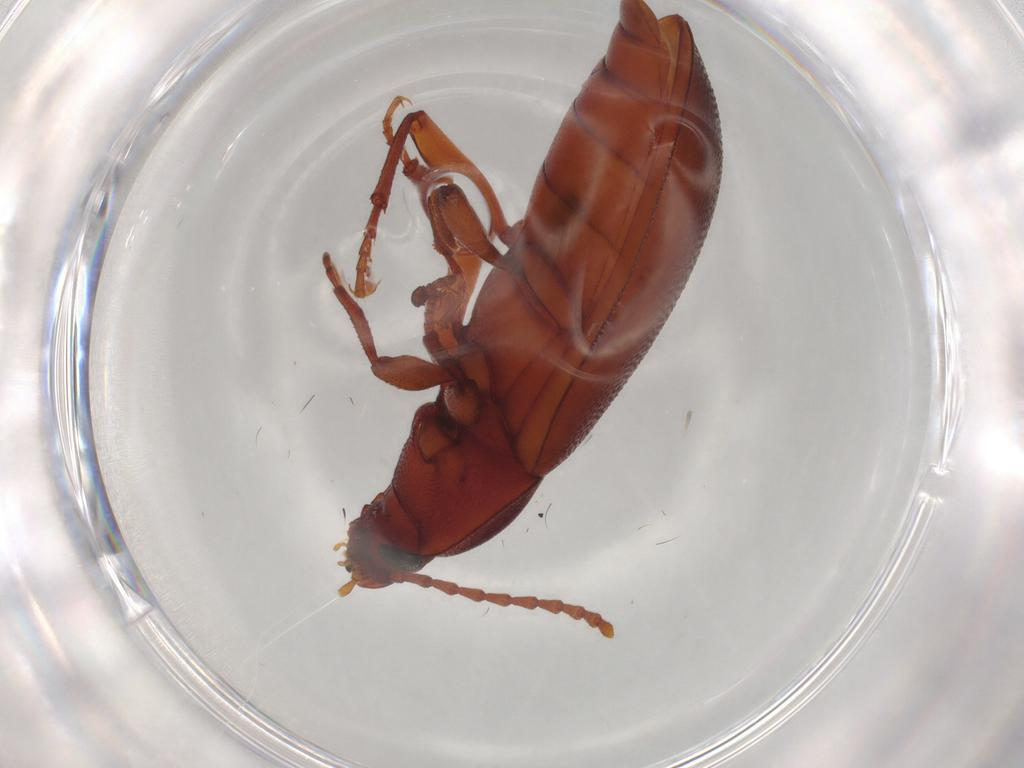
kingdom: Animalia
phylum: Arthropoda
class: Insecta
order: Coleoptera
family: Tenebrionidae
